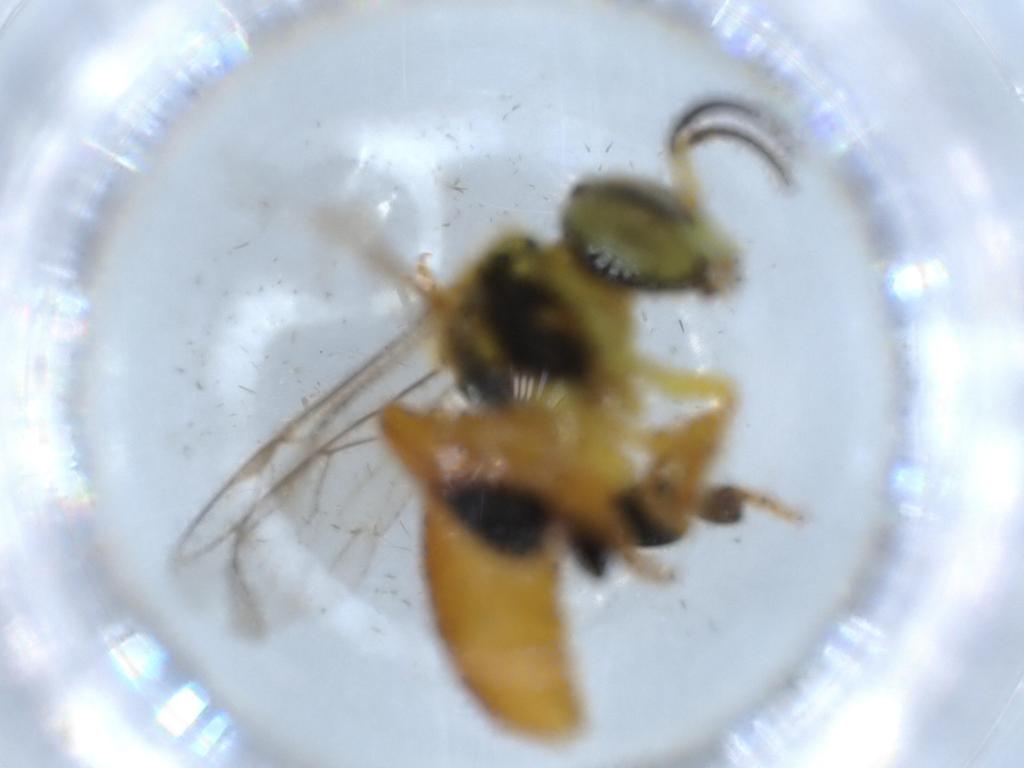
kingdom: Animalia
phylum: Arthropoda
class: Insecta
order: Hymenoptera
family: Apidae
